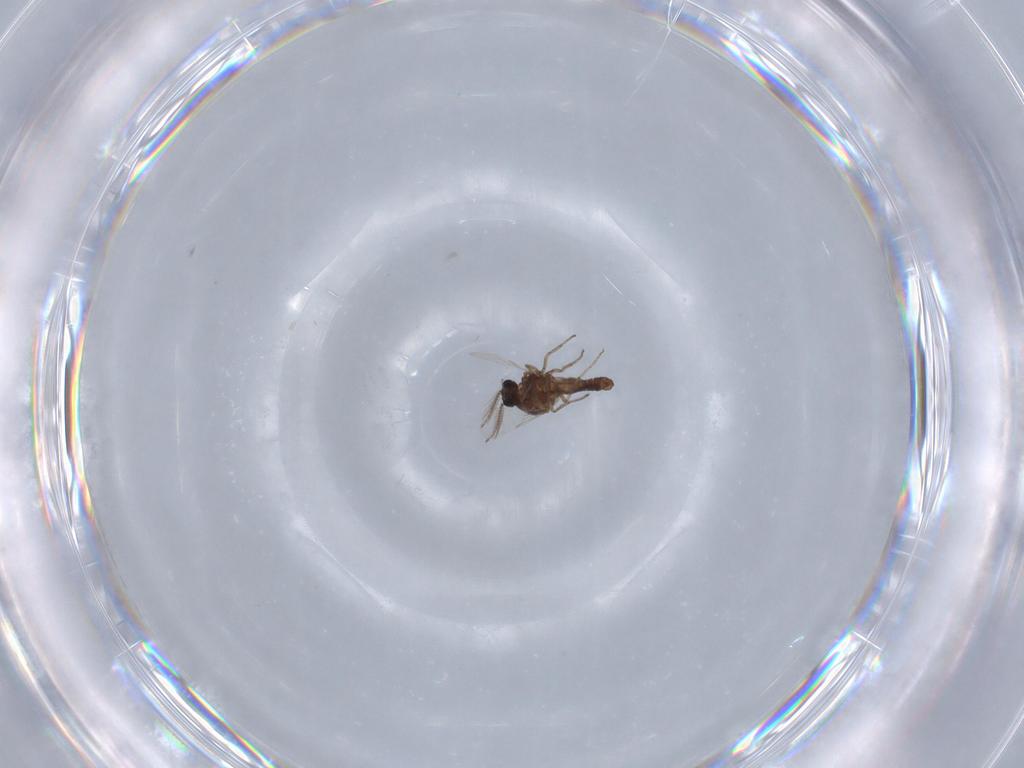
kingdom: Animalia
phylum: Arthropoda
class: Insecta
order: Diptera
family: Ceratopogonidae
